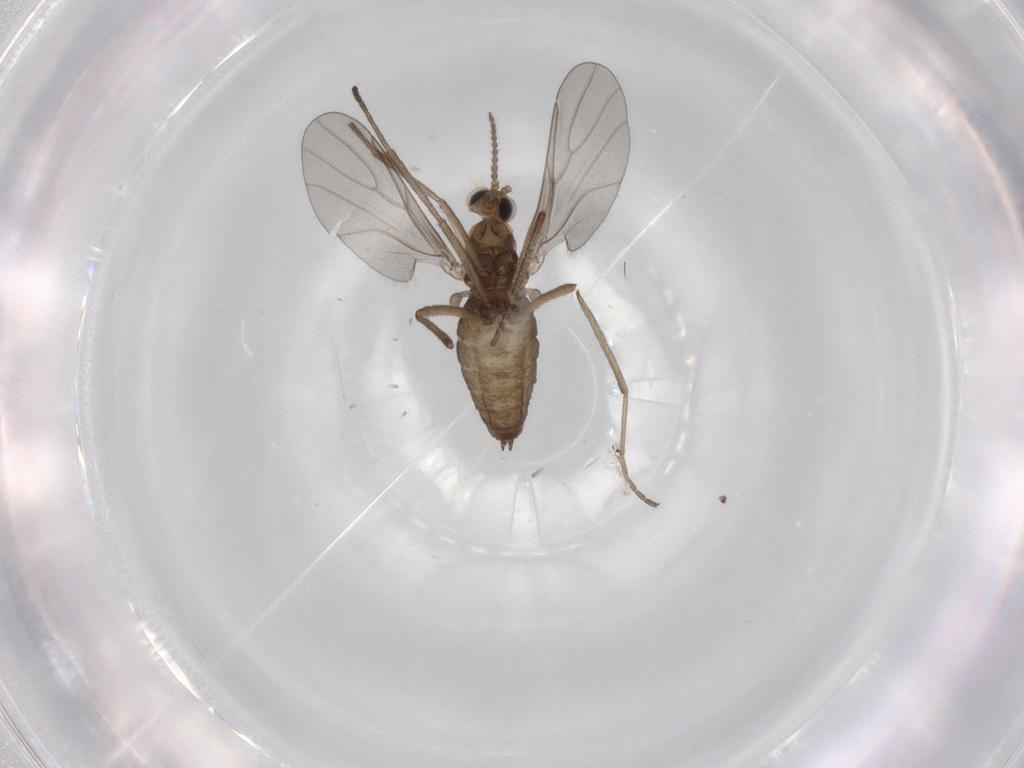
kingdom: Animalia
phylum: Arthropoda
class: Insecta
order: Diptera
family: Cecidomyiidae
